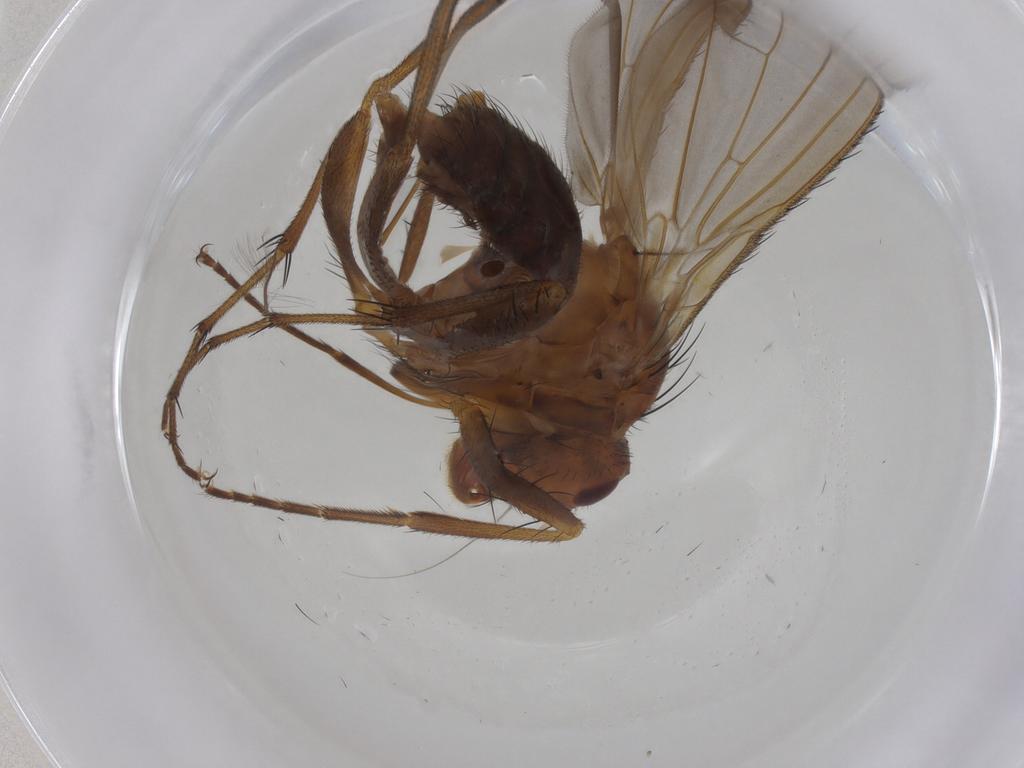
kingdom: Animalia
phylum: Arthropoda
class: Insecta
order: Diptera
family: Heleomyzidae
